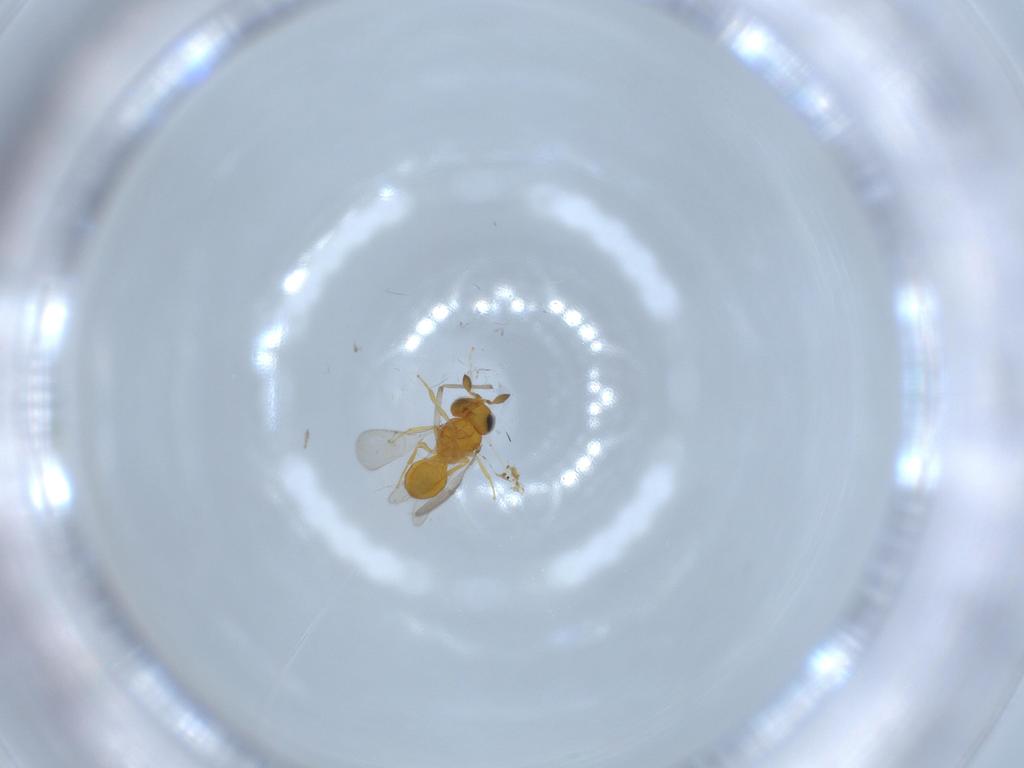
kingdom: Animalia
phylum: Arthropoda
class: Insecta
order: Hymenoptera
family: Scelionidae
